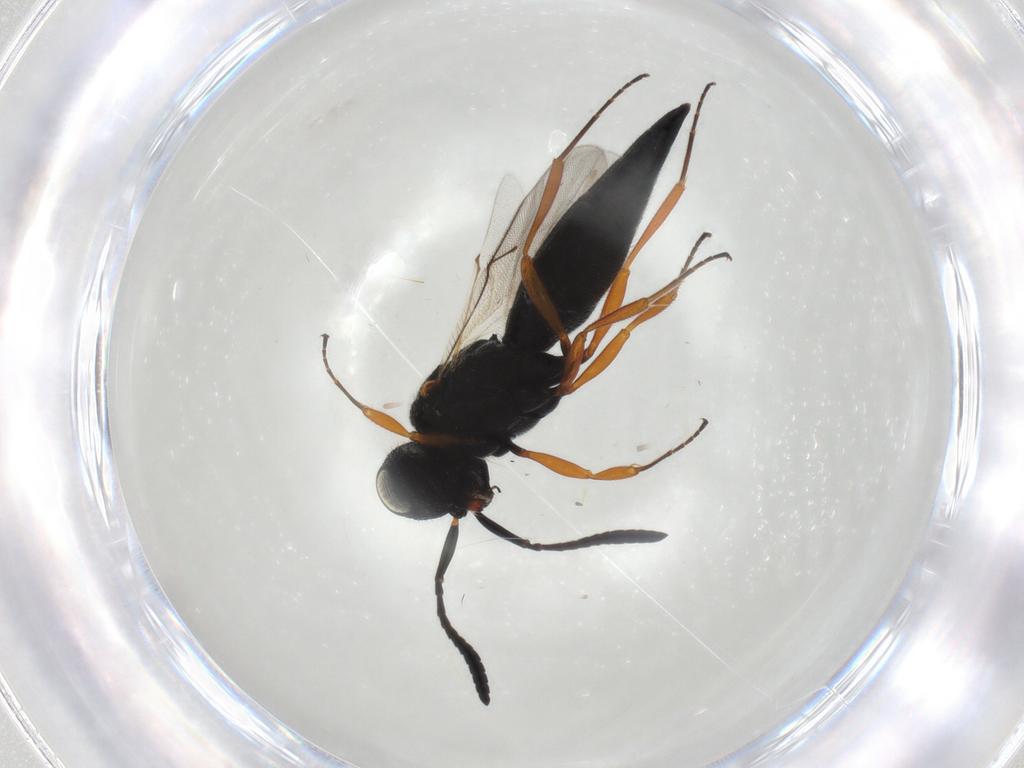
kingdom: Animalia
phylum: Arthropoda
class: Insecta
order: Hymenoptera
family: Scelionidae
